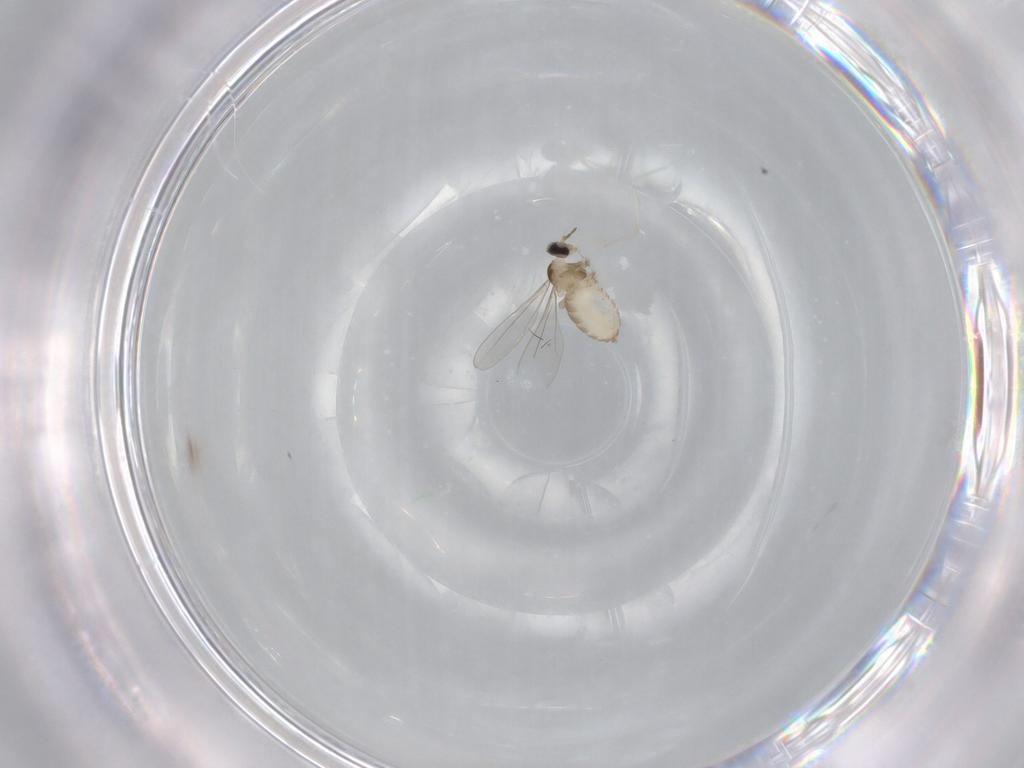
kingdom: Animalia
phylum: Arthropoda
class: Insecta
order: Diptera
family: Cecidomyiidae
